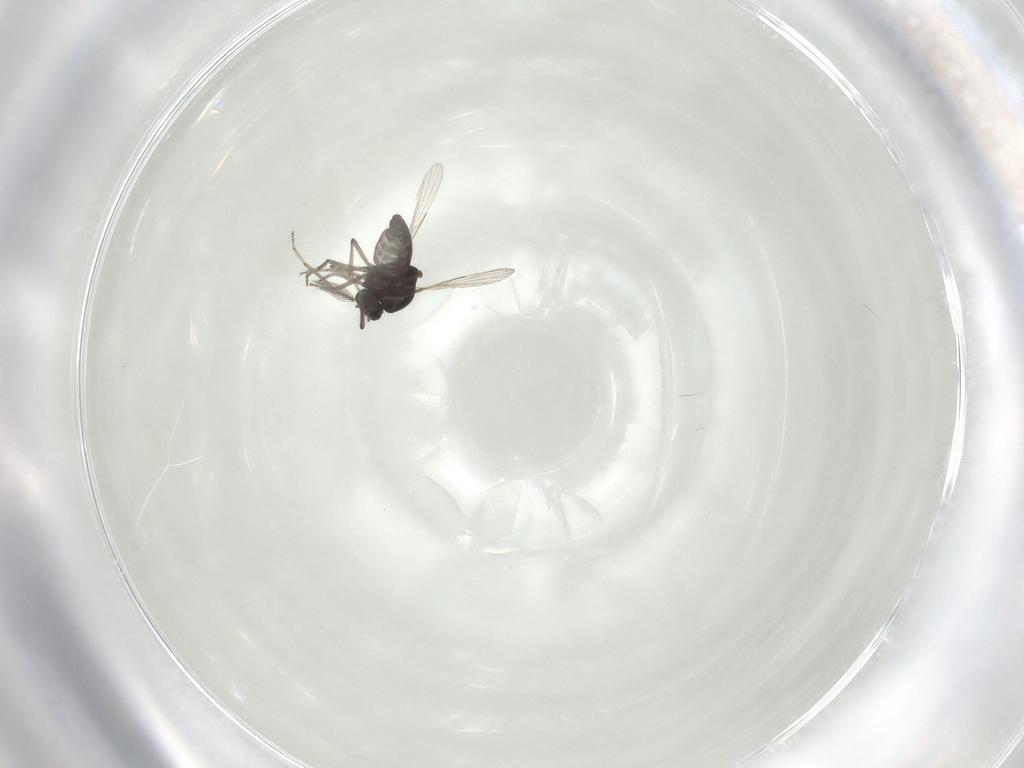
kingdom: Animalia
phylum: Arthropoda
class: Insecta
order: Diptera
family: Ceratopogonidae
